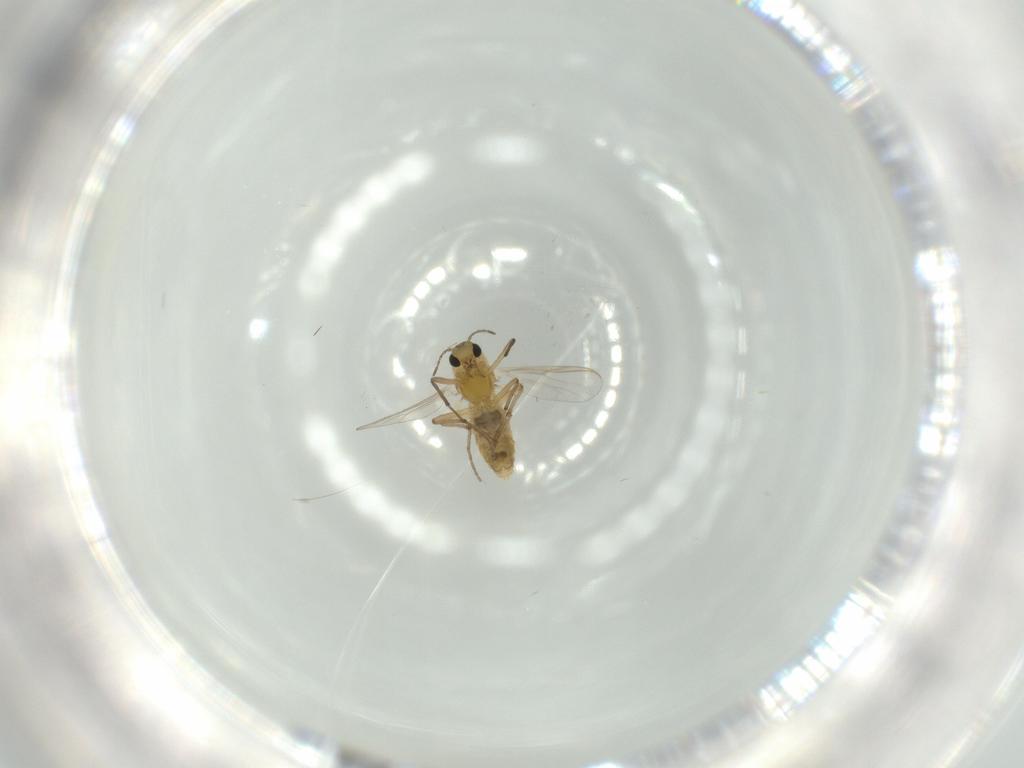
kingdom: Animalia
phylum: Arthropoda
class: Insecta
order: Diptera
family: Chironomidae
